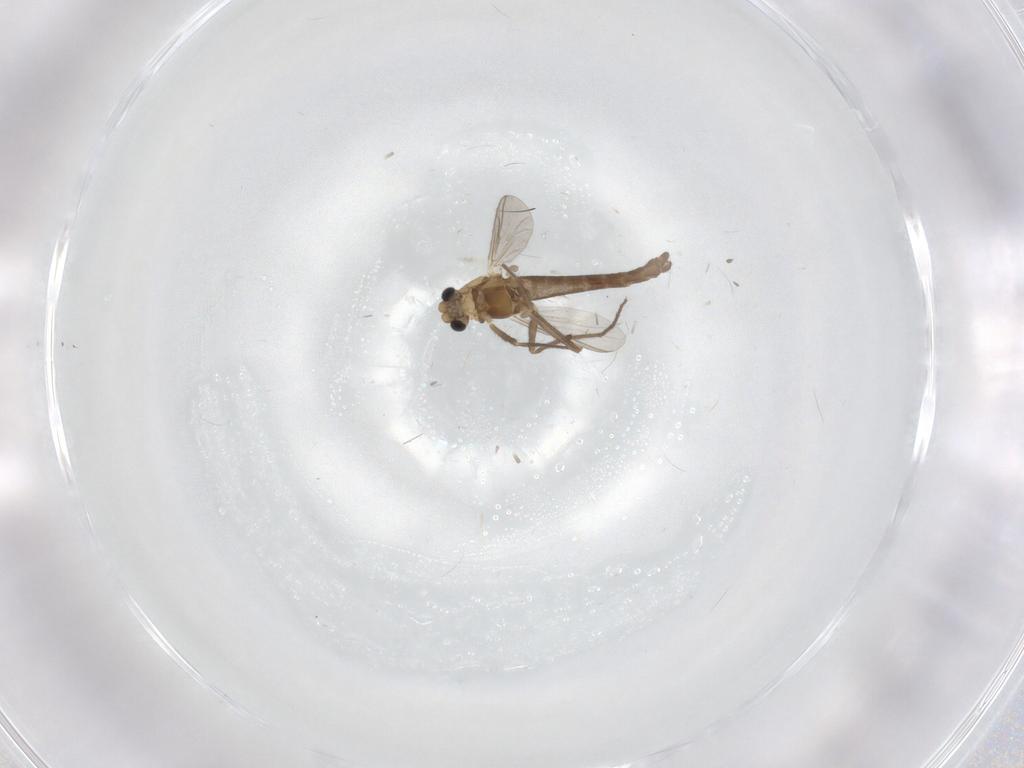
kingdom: Animalia
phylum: Arthropoda
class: Insecta
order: Diptera
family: Chironomidae
